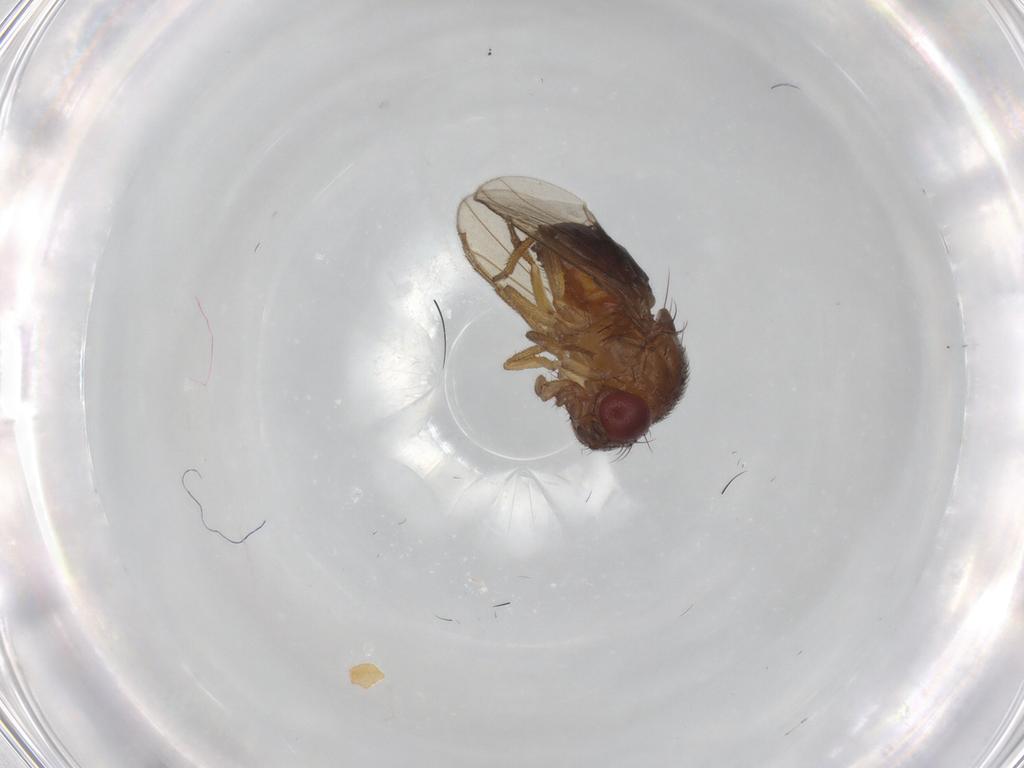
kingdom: Animalia
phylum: Arthropoda
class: Insecta
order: Diptera
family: Drosophilidae
